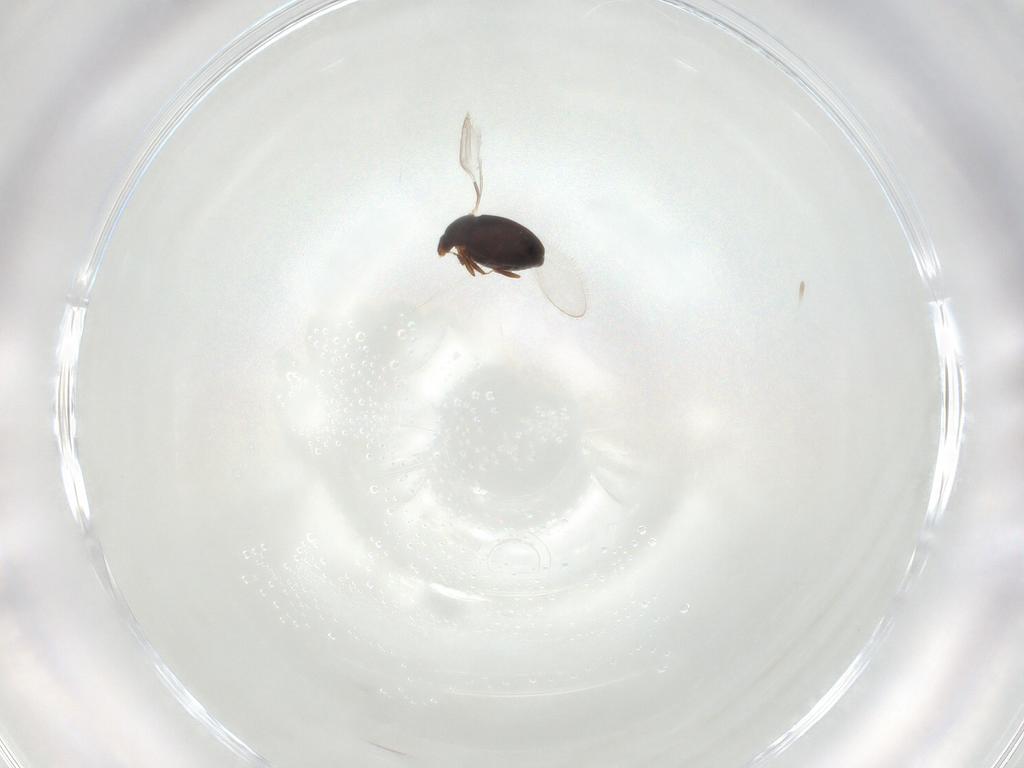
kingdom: Animalia
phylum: Arthropoda
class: Insecta
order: Coleoptera
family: Corylophidae
